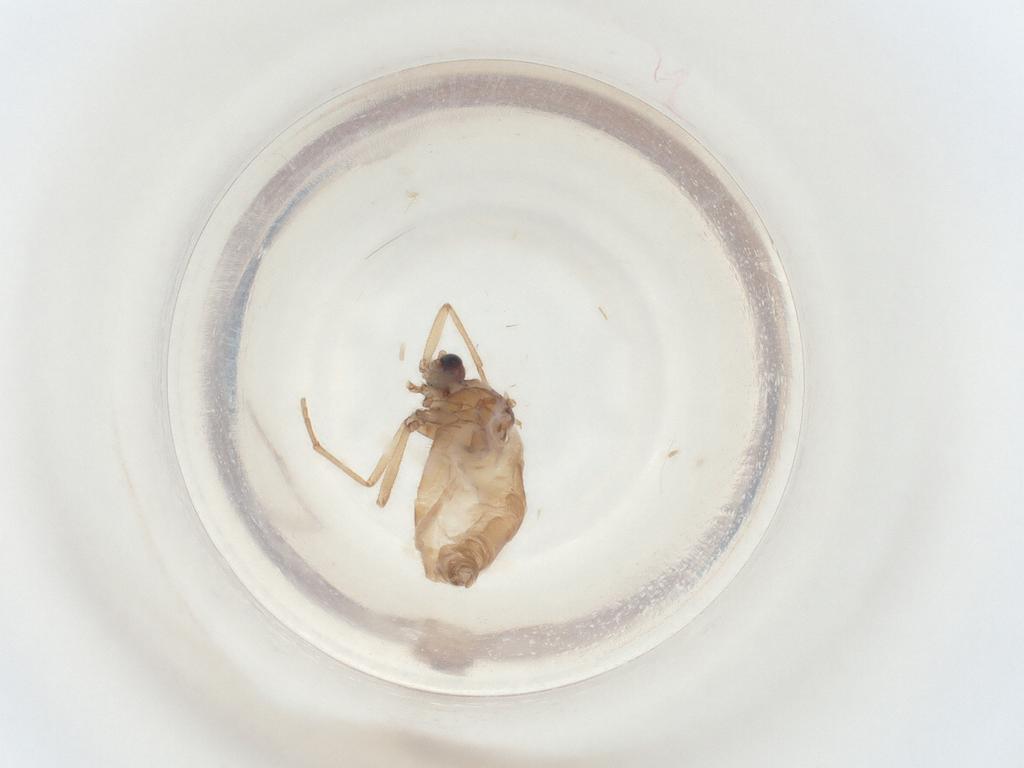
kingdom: Animalia
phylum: Arthropoda
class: Insecta
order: Diptera
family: Sciaridae
